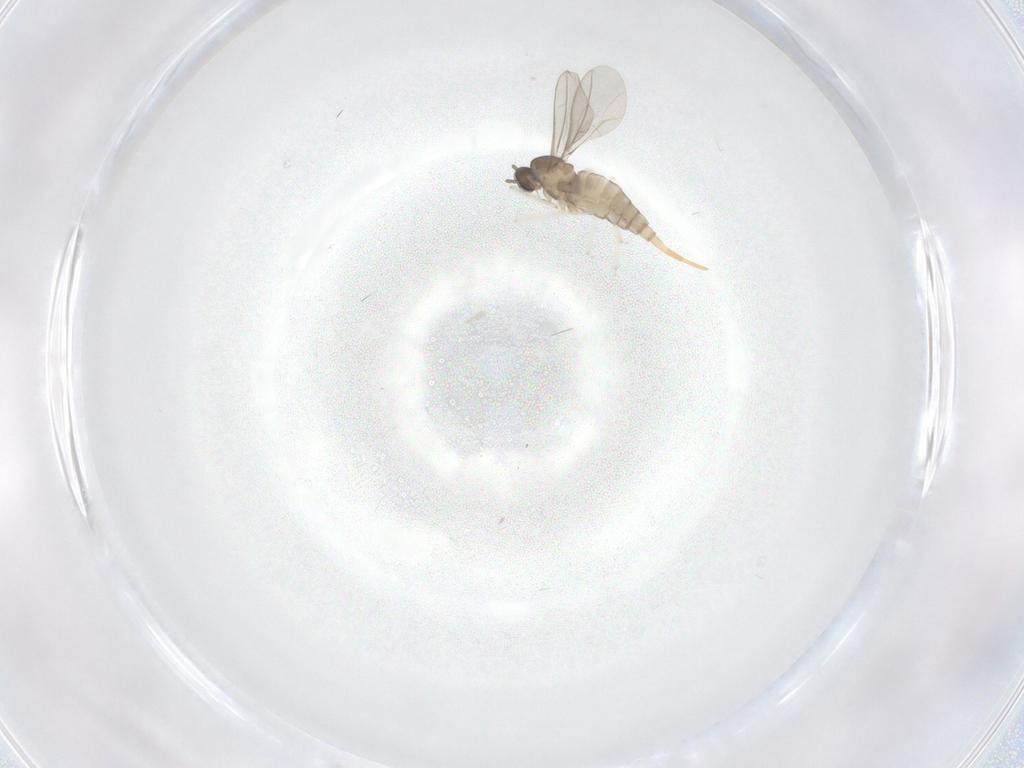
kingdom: Animalia
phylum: Arthropoda
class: Insecta
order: Diptera
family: Cecidomyiidae
